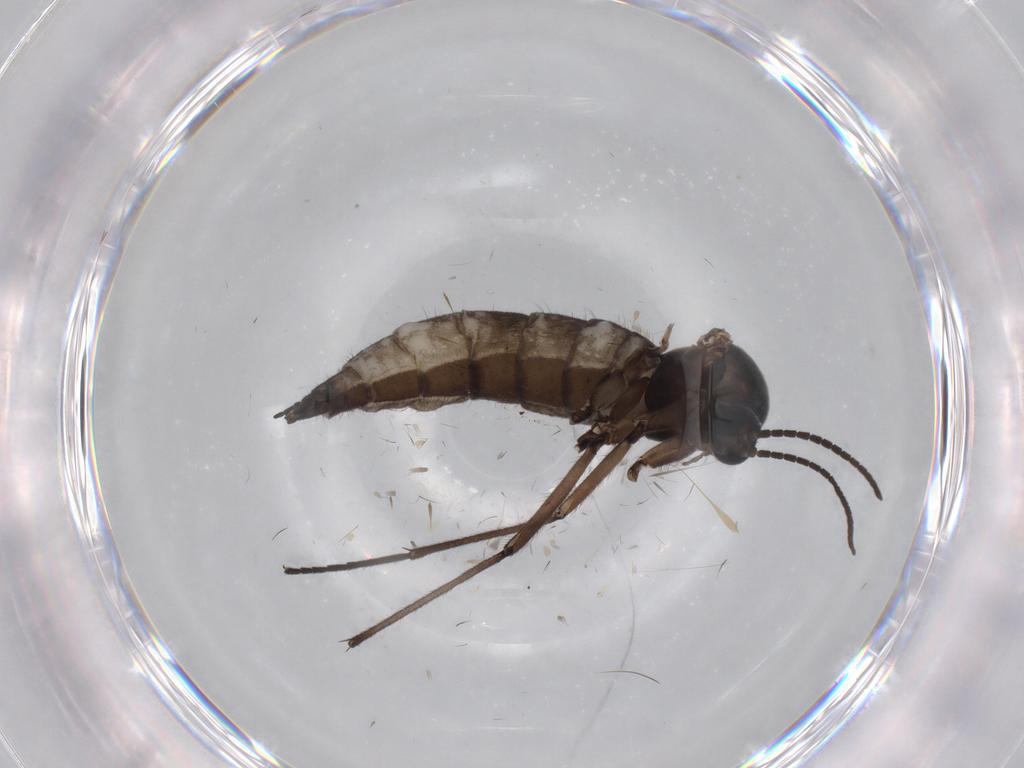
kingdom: Animalia
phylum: Arthropoda
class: Insecta
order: Diptera
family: Sciaridae
